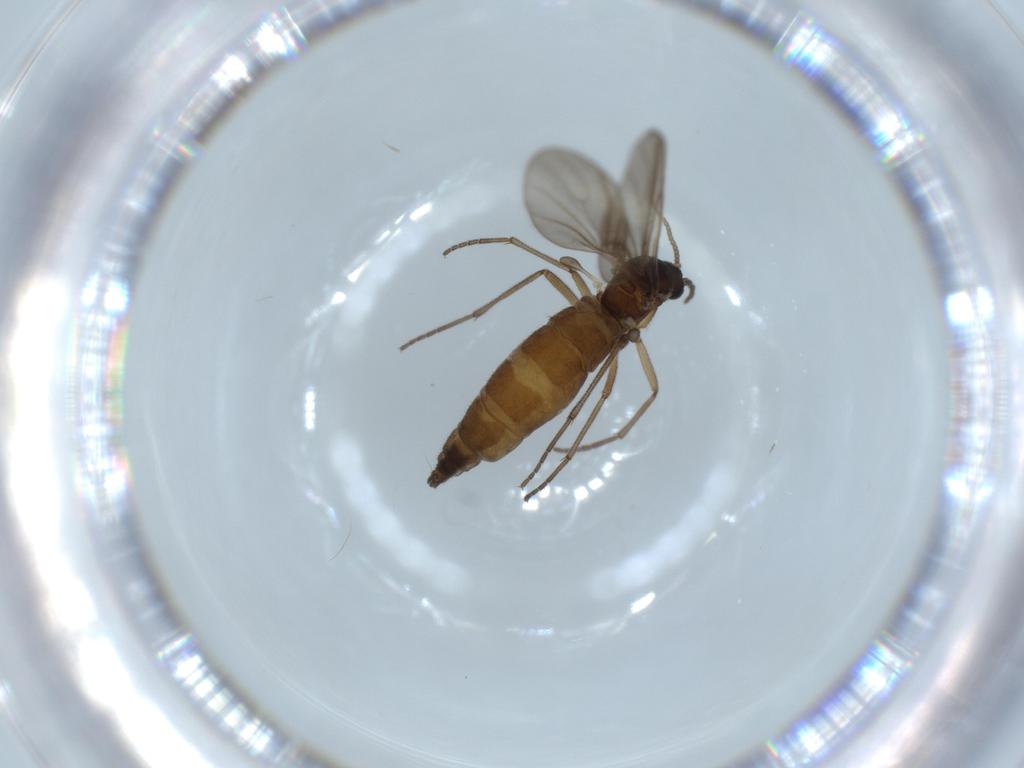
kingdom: Animalia
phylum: Arthropoda
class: Insecta
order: Diptera
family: Sciaridae
